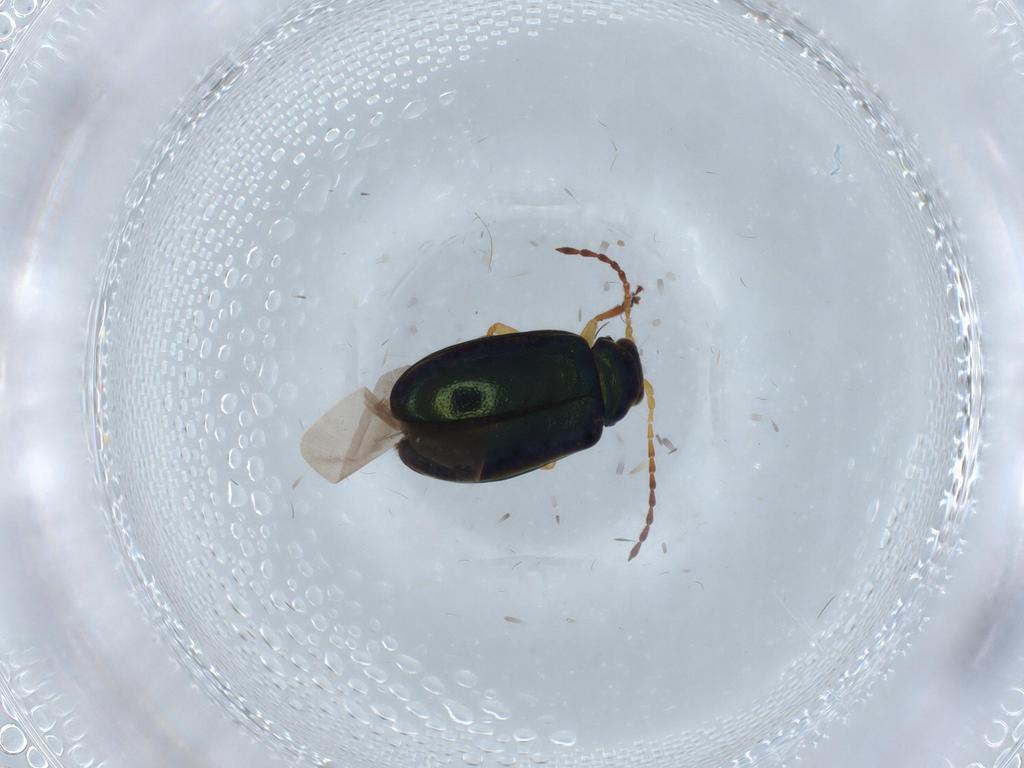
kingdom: Animalia
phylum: Arthropoda
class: Insecta
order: Coleoptera
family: Chrysomelidae
